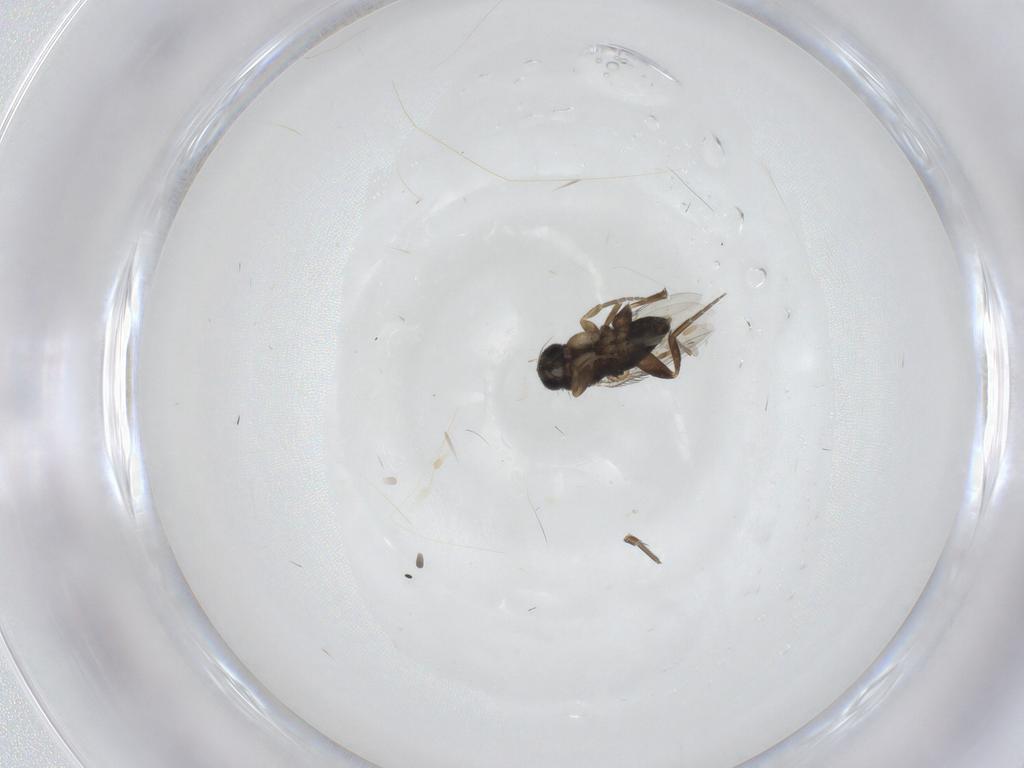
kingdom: Animalia
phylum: Arthropoda
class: Insecta
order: Diptera
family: Phoridae
